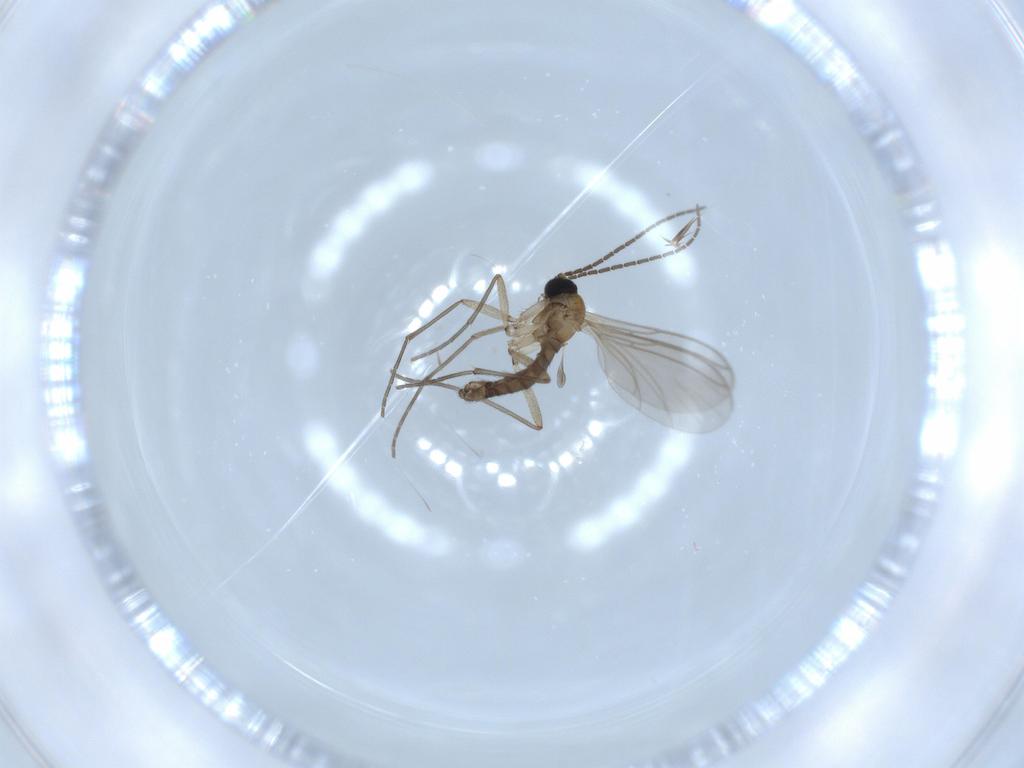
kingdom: Animalia
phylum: Arthropoda
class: Insecta
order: Diptera
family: Sciaridae
